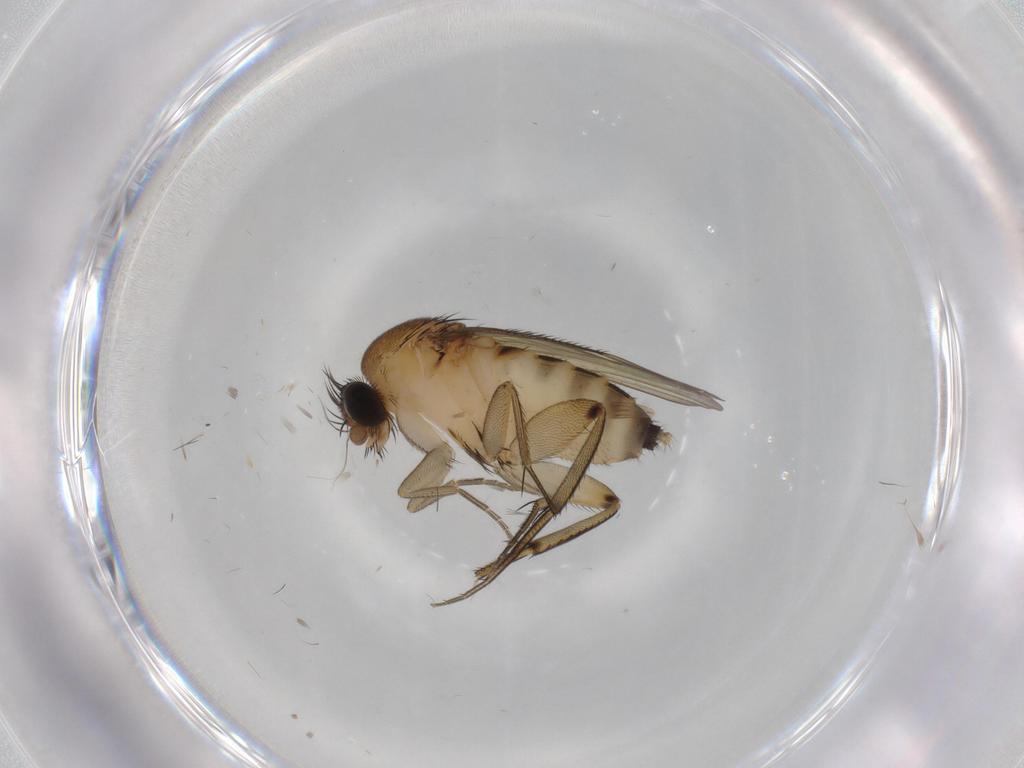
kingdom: Animalia
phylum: Arthropoda
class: Insecta
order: Diptera
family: Phoridae
